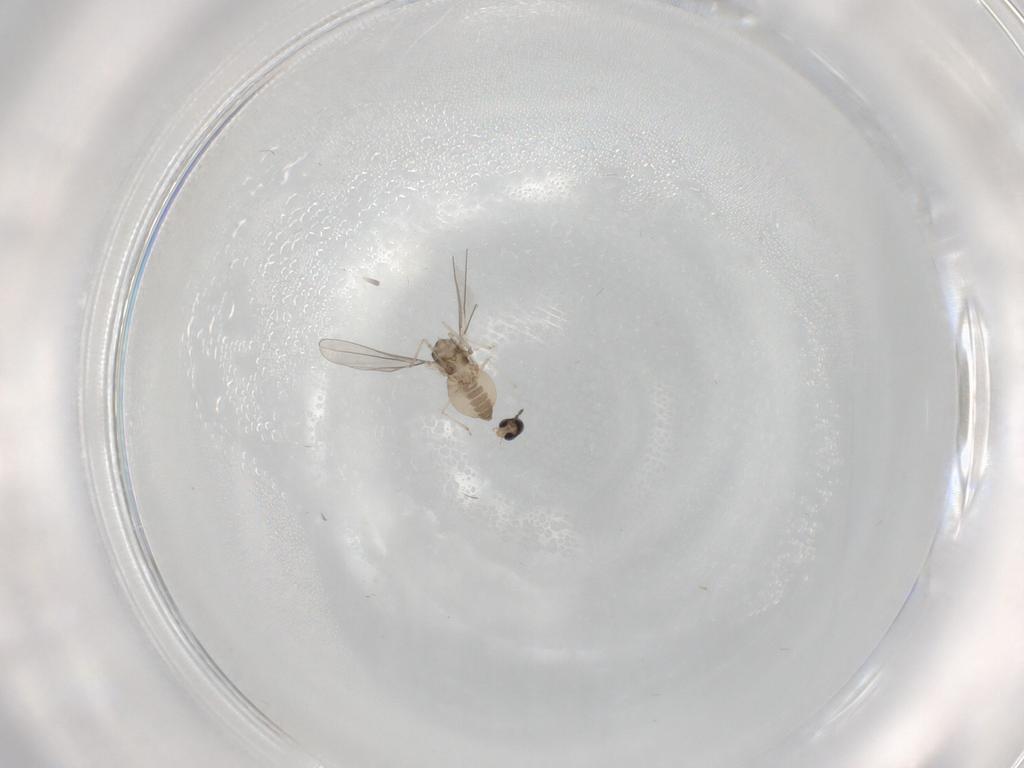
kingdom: Animalia
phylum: Arthropoda
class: Insecta
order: Diptera
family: Cecidomyiidae
